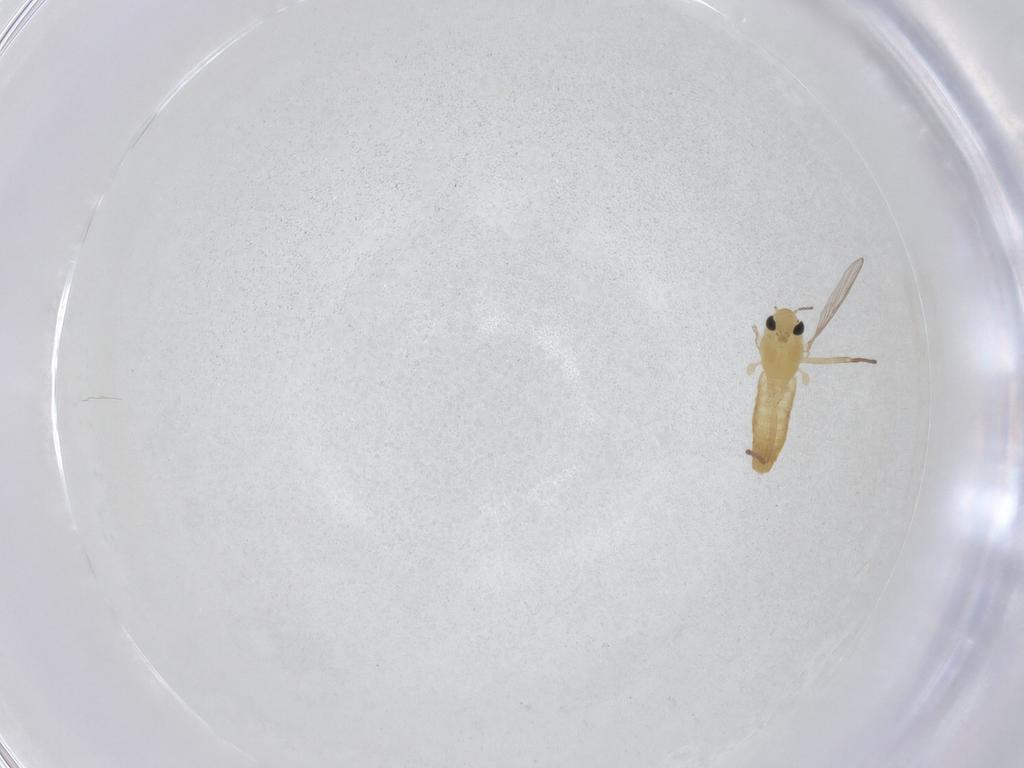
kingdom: Animalia
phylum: Arthropoda
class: Insecta
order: Diptera
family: Chironomidae
